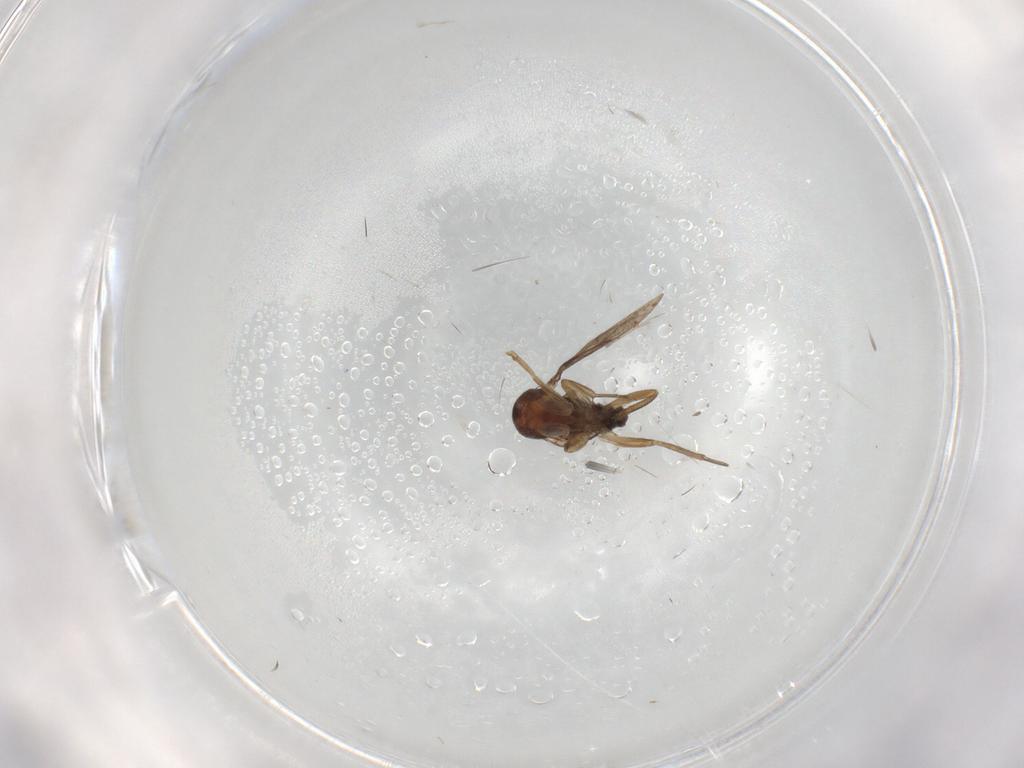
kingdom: Animalia
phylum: Arthropoda
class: Insecta
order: Diptera
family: Phoridae
